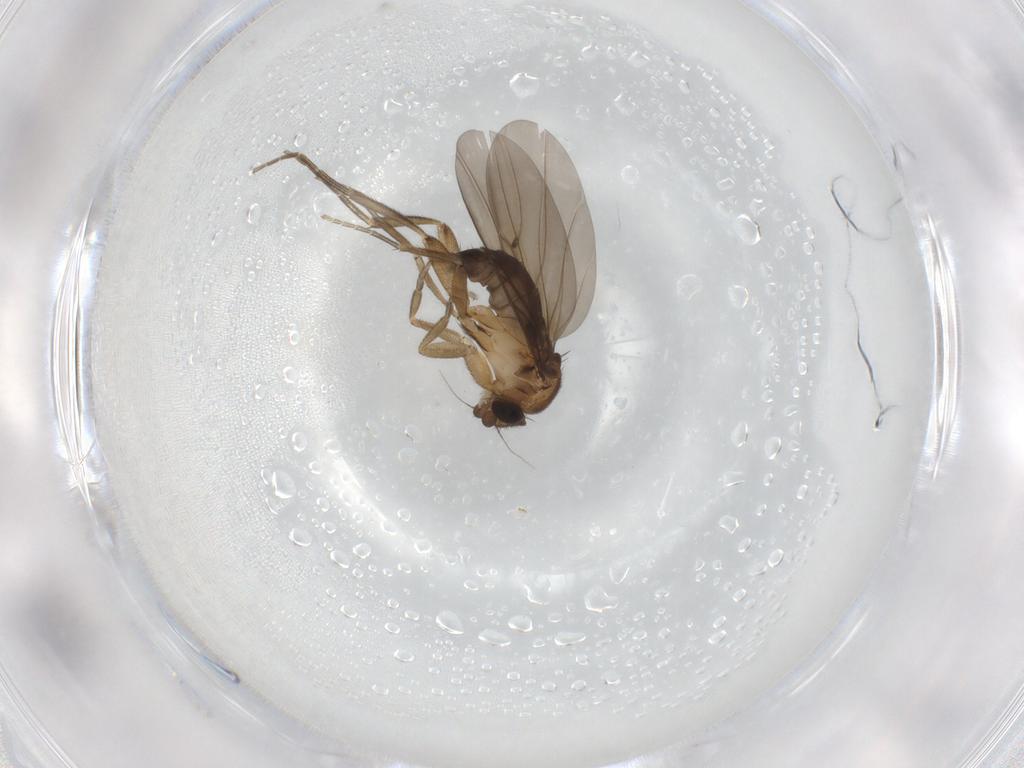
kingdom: Animalia
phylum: Arthropoda
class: Insecta
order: Diptera
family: Phoridae
